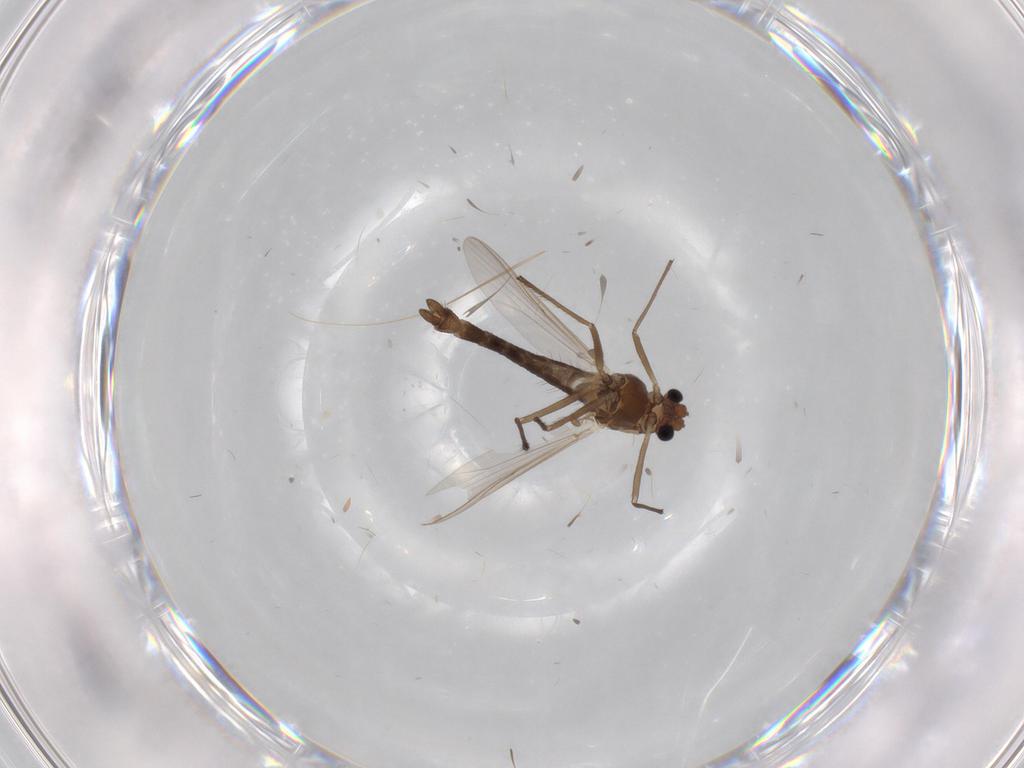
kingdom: Animalia
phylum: Arthropoda
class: Insecta
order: Diptera
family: Chironomidae
